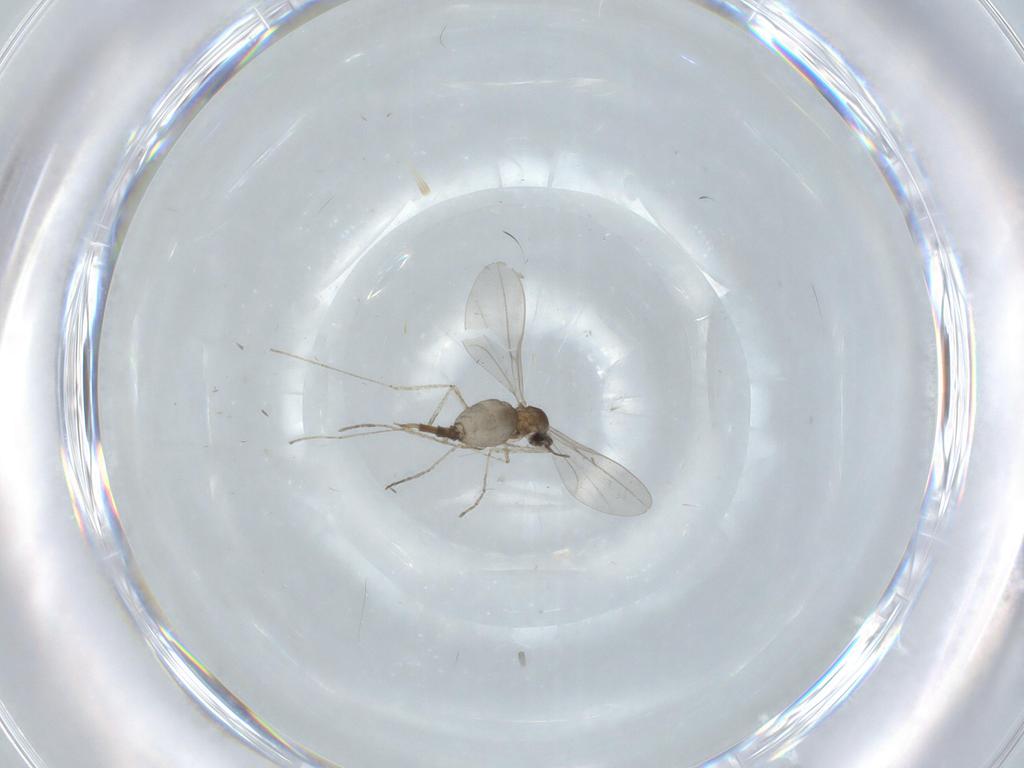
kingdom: Animalia
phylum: Arthropoda
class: Insecta
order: Diptera
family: Cecidomyiidae
